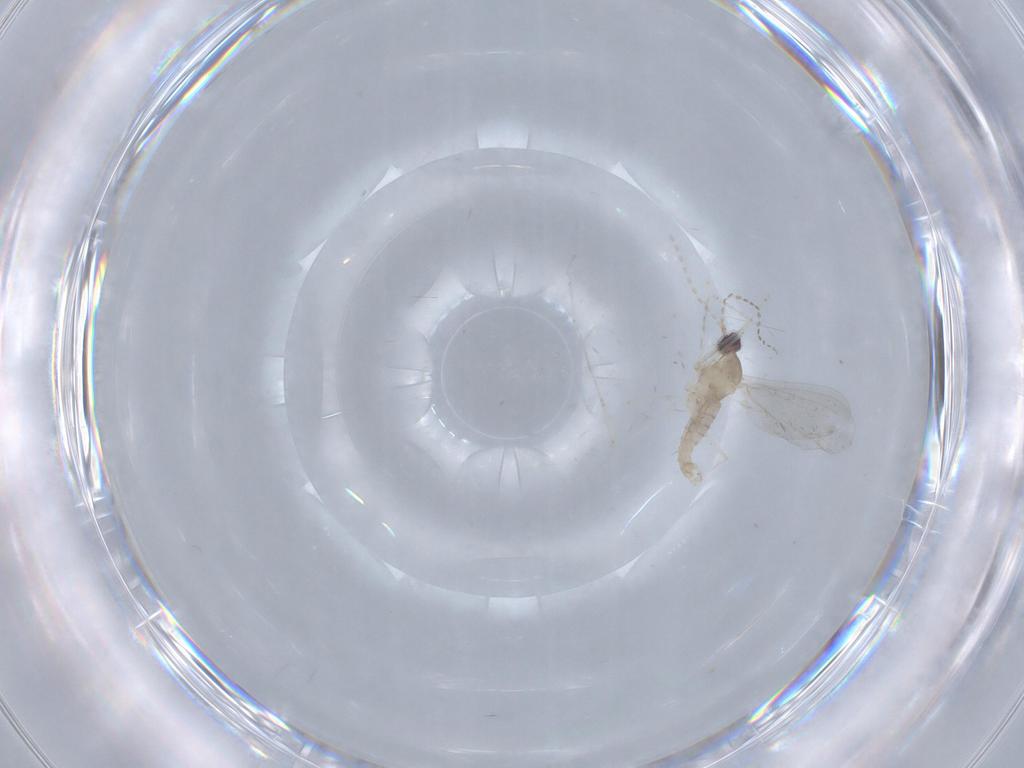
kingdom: Animalia
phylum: Arthropoda
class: Insecta
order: Diptera
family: Cecidomyiidae
